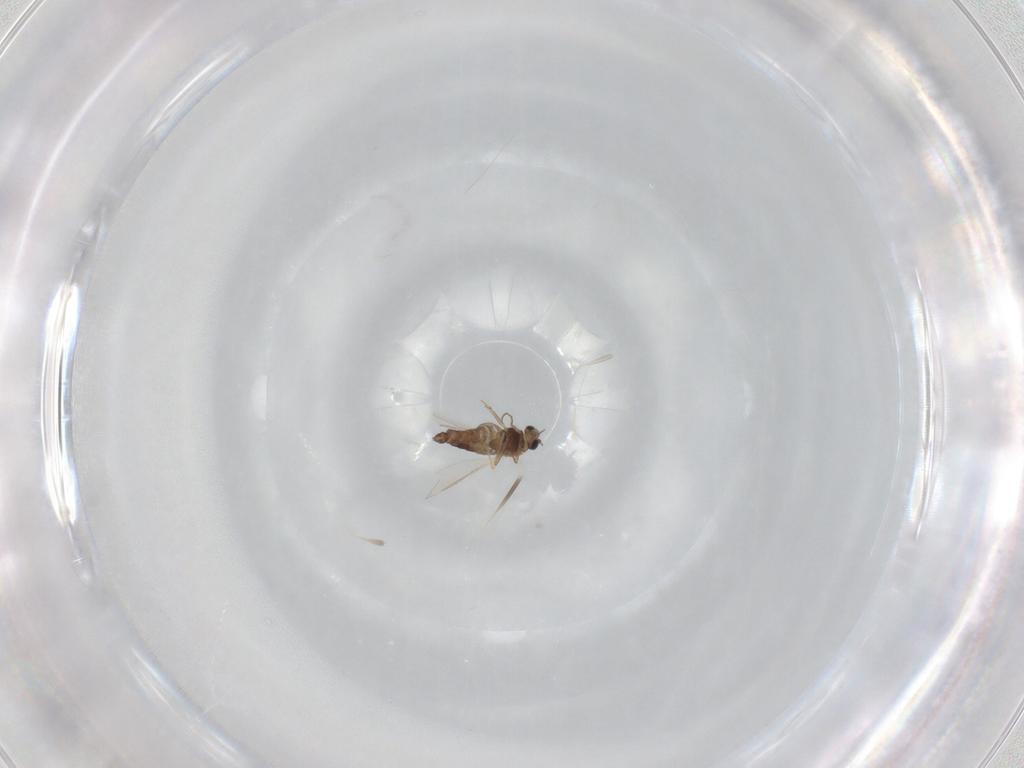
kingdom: Animalia
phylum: Arthropoda
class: Insecta
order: Diptera
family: Chironomidae
